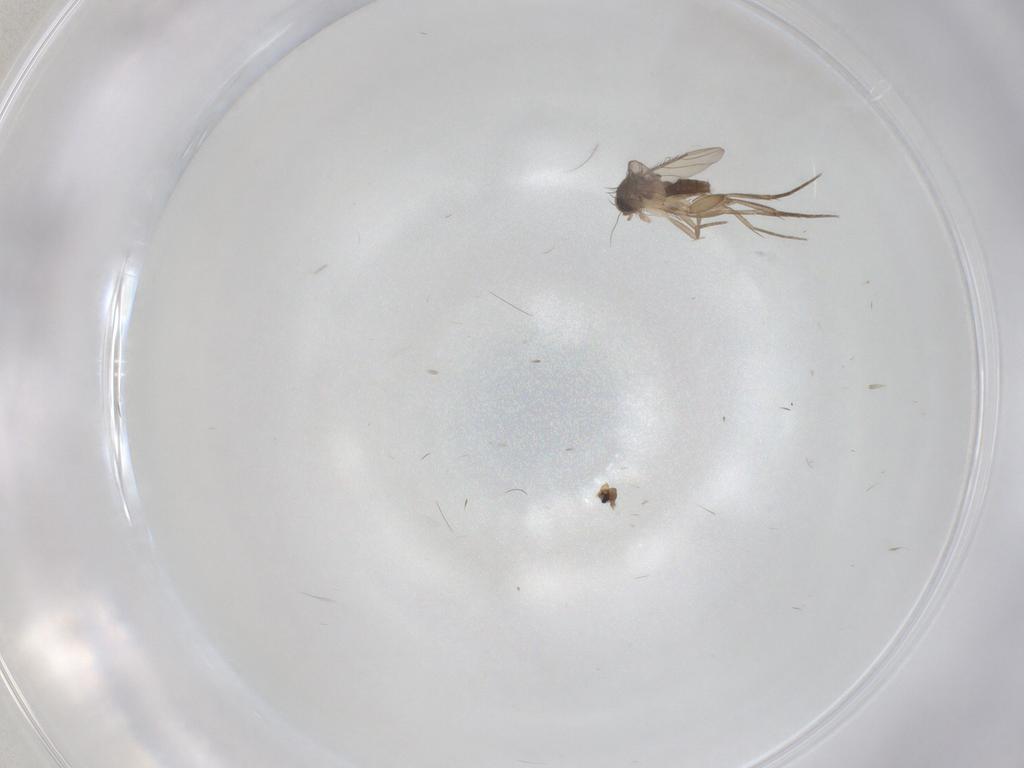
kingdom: Animalia
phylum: Arthropoda
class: Insecta
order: Diptera
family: Phoridae
